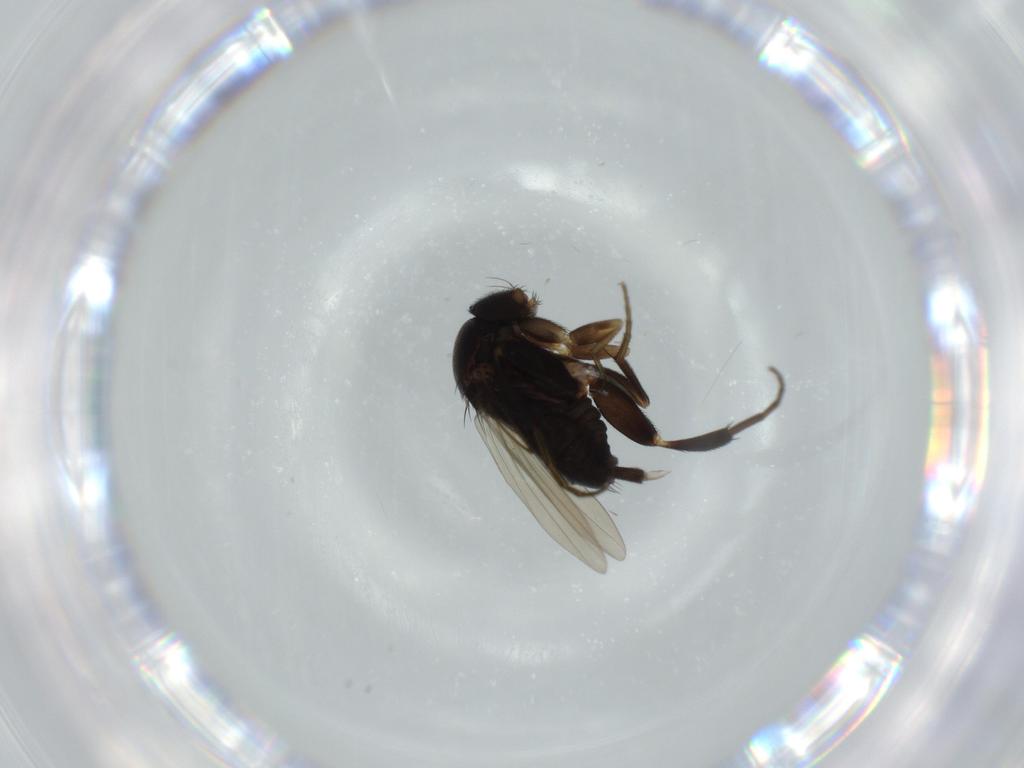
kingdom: Animalia
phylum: Arthropoda
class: Insecta
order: Diptera
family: Phoridae
